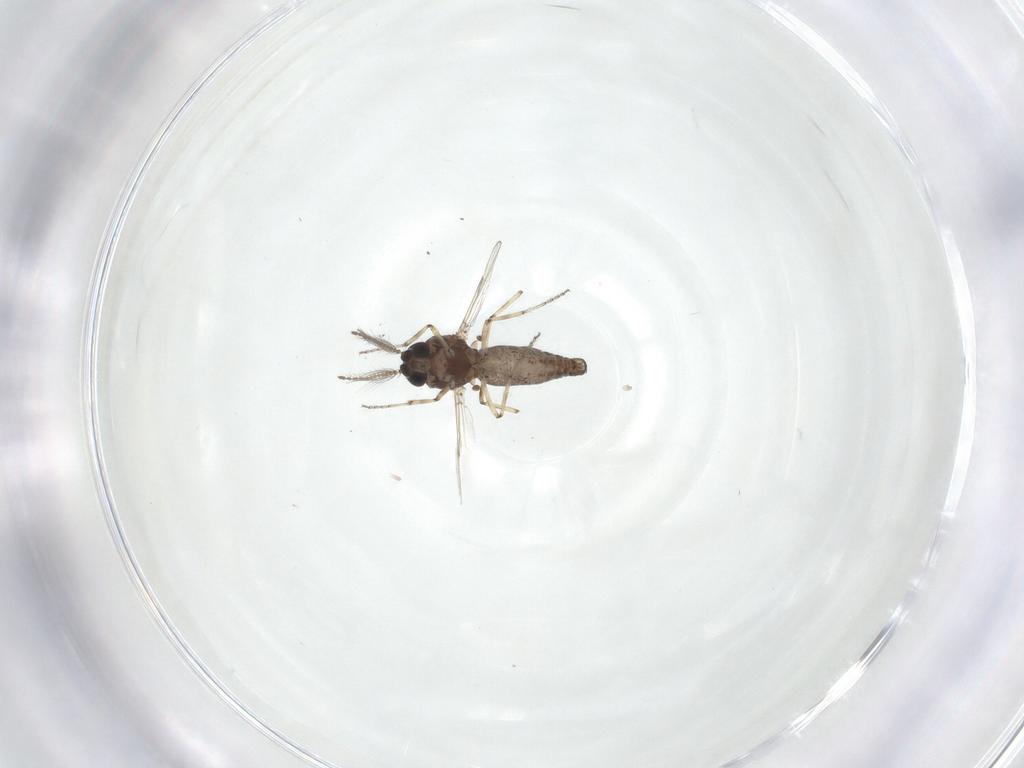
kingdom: Animalia
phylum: Arthropoda
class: Insecta
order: Diptera
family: Ceratopogonidae
